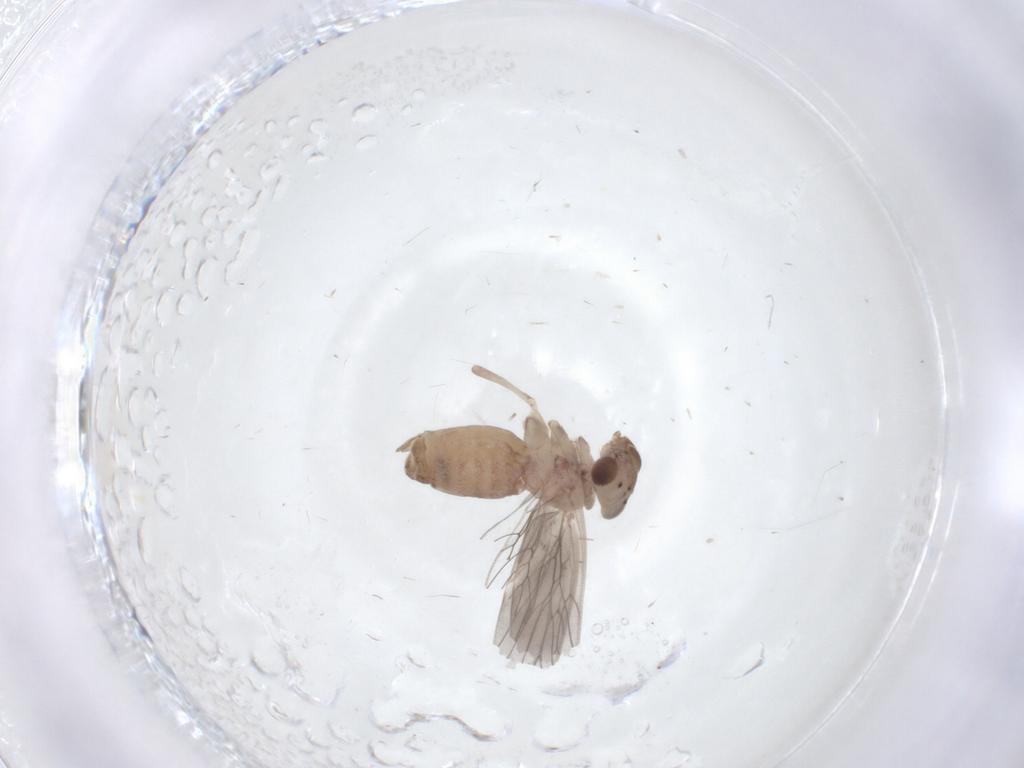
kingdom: Animalia
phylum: Arthropoda
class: Insecta
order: Psocodea
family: Lepidopsocidae
